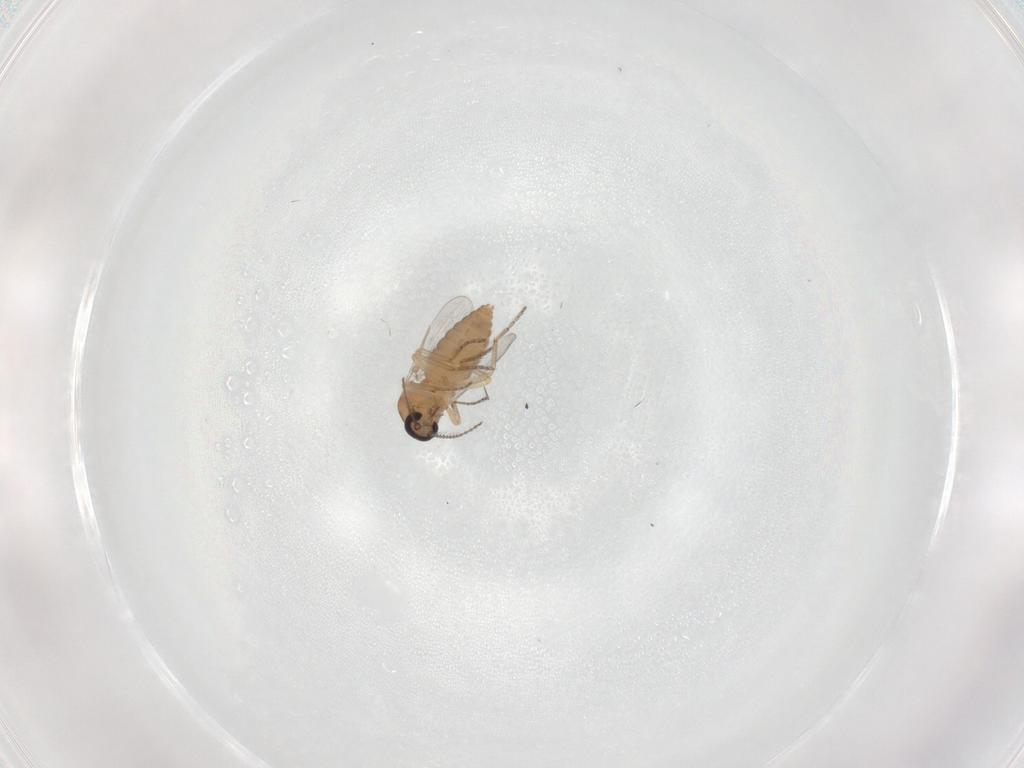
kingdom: Animalia
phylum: Arthropoda
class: Insecta
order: Diptera
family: Ceratopogonidae
